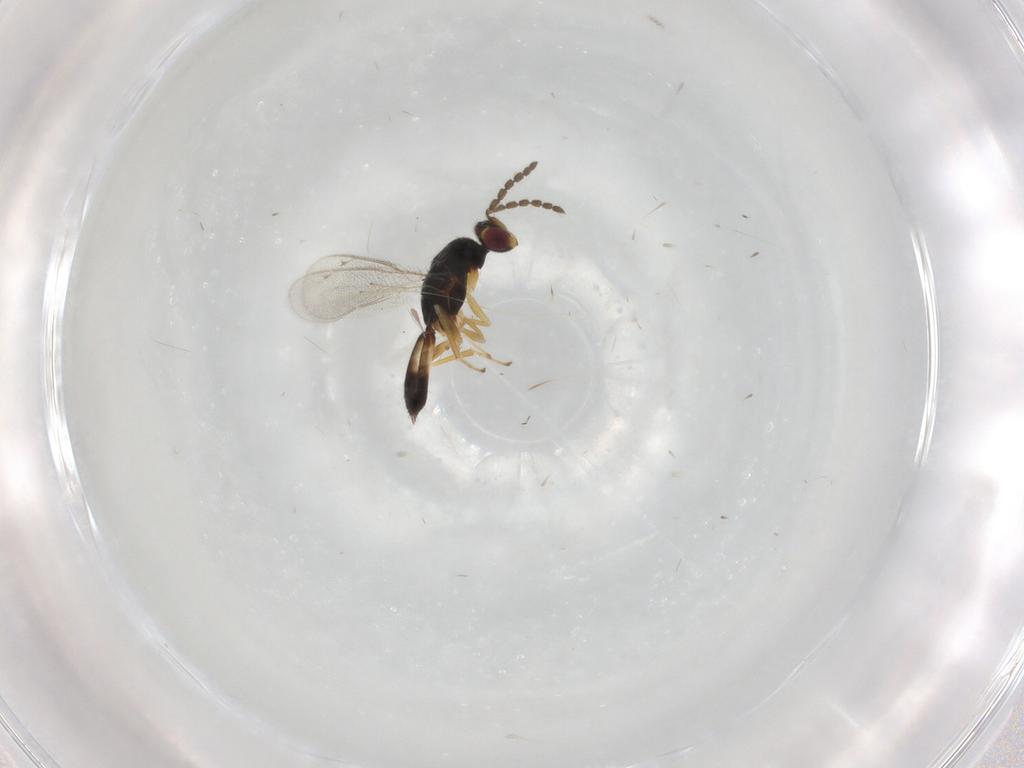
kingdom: Animalia
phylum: Arthropoda
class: Insecta
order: Hymenoptera
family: Eulophidae
